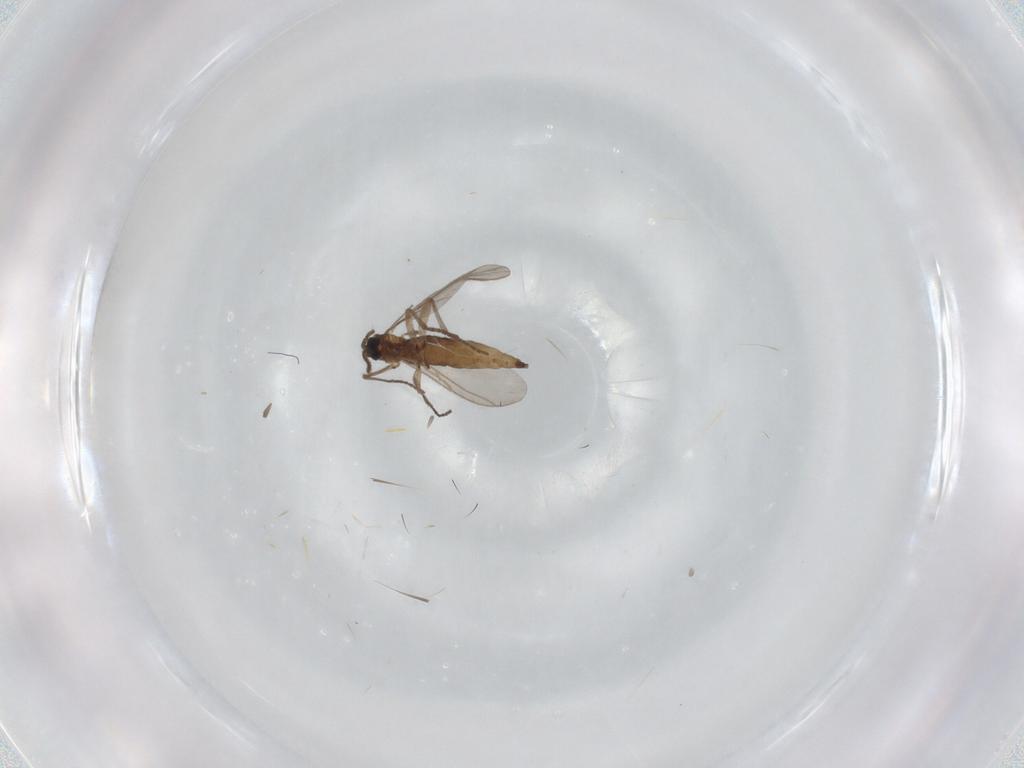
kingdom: Animalia
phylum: Arthropoda
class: Insecta
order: Diptera
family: Sciaridae
